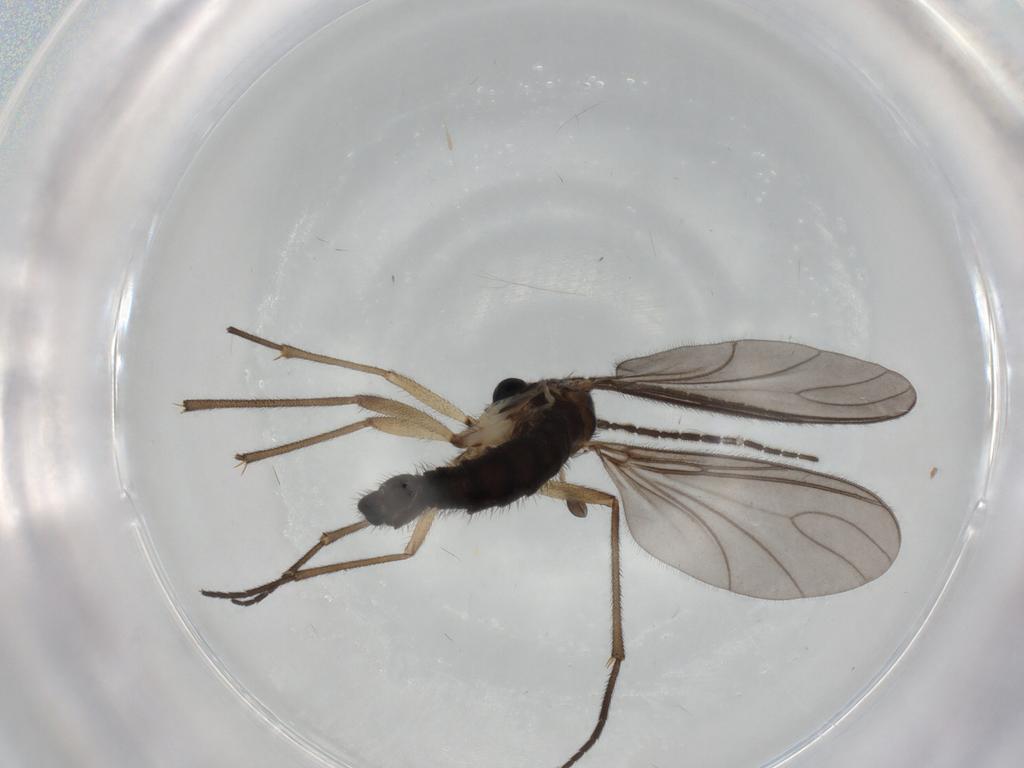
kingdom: Animalia
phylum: Arthropoda
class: Insecta
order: Diptera
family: Sciaridae
